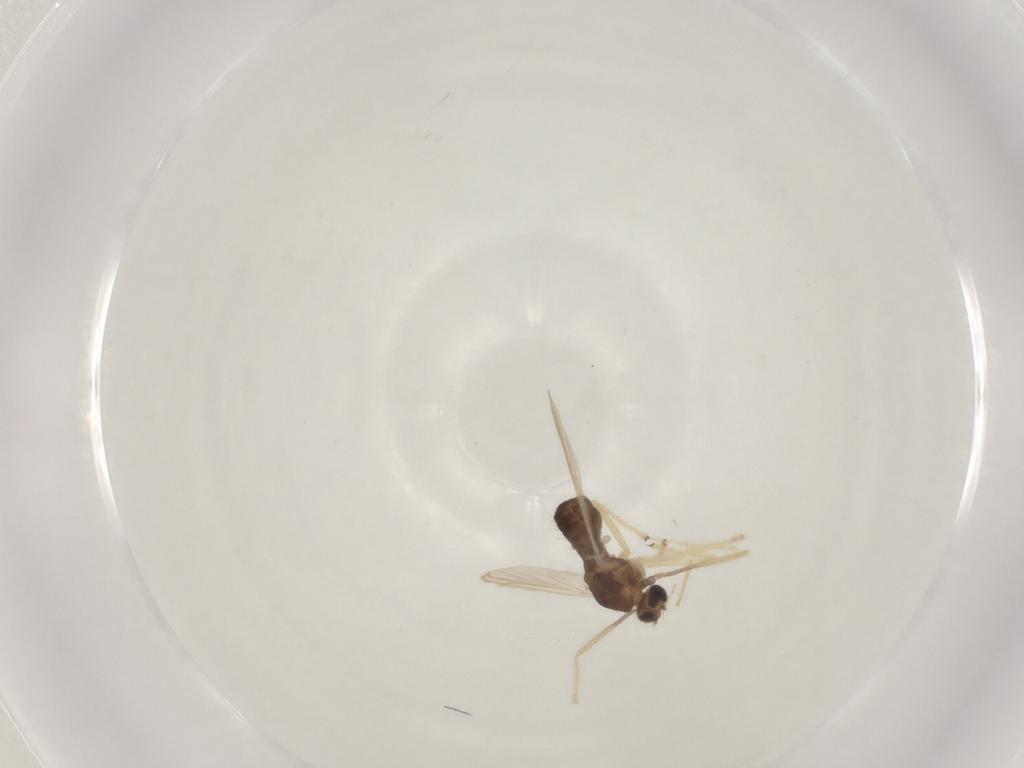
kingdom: Animalia
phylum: Arthropoda
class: Insecta
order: Diptera
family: Chironomidae
